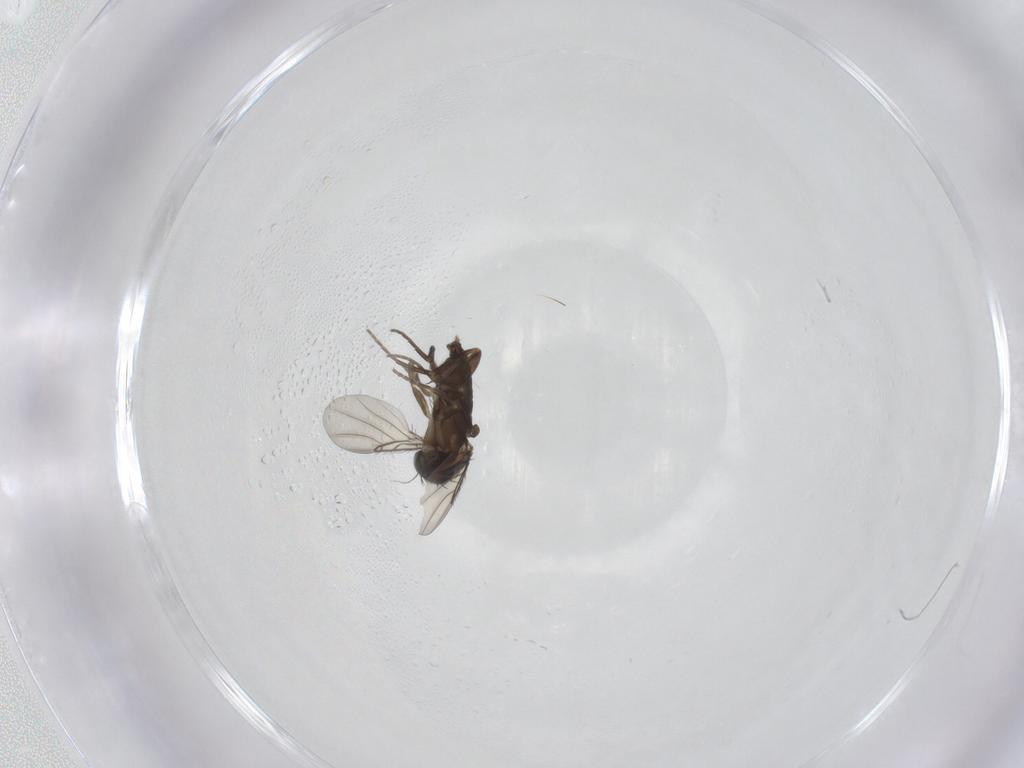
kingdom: Animalia
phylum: Arthropoda
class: Insecta
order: Diptera
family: Phoridae
